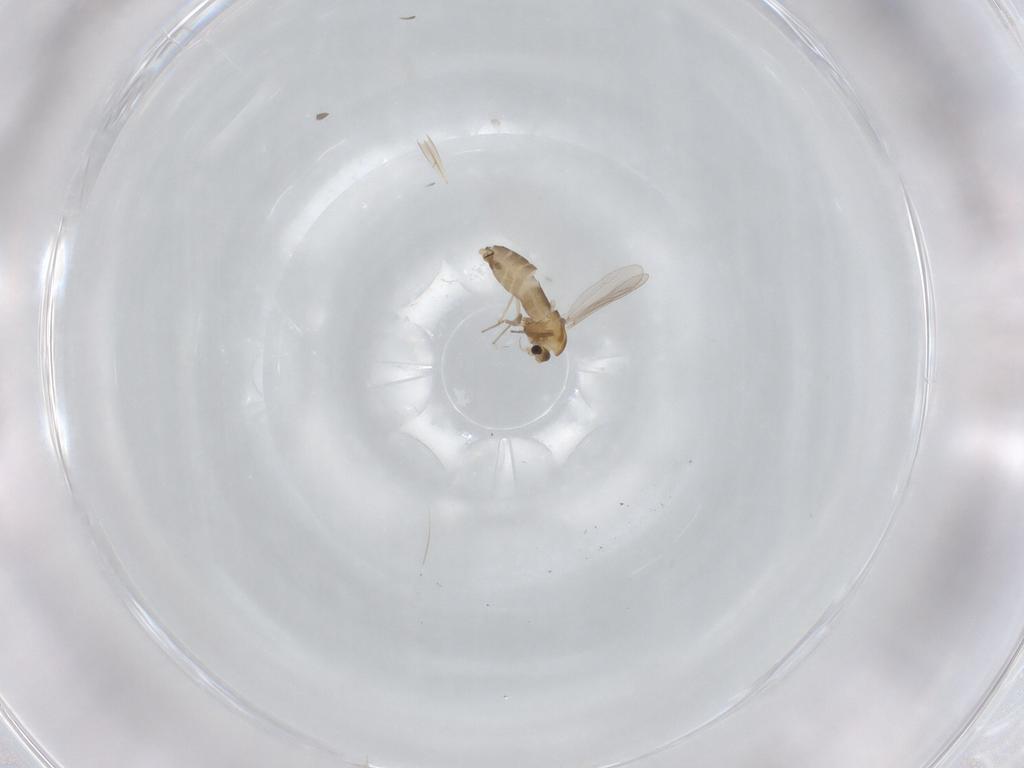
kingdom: Animalia
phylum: Arthropoda
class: Insecta
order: Diptera
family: Chironomidae
